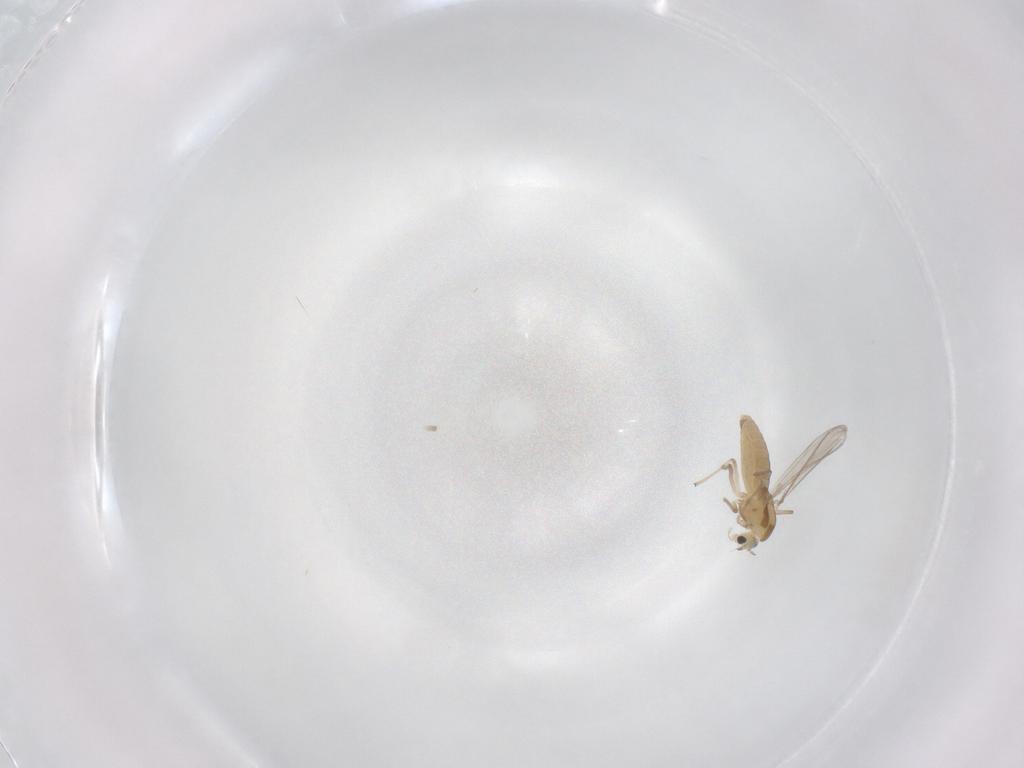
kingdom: Animalia
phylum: Arthropoda
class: Insecta
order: Diptera
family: Chironomidae
